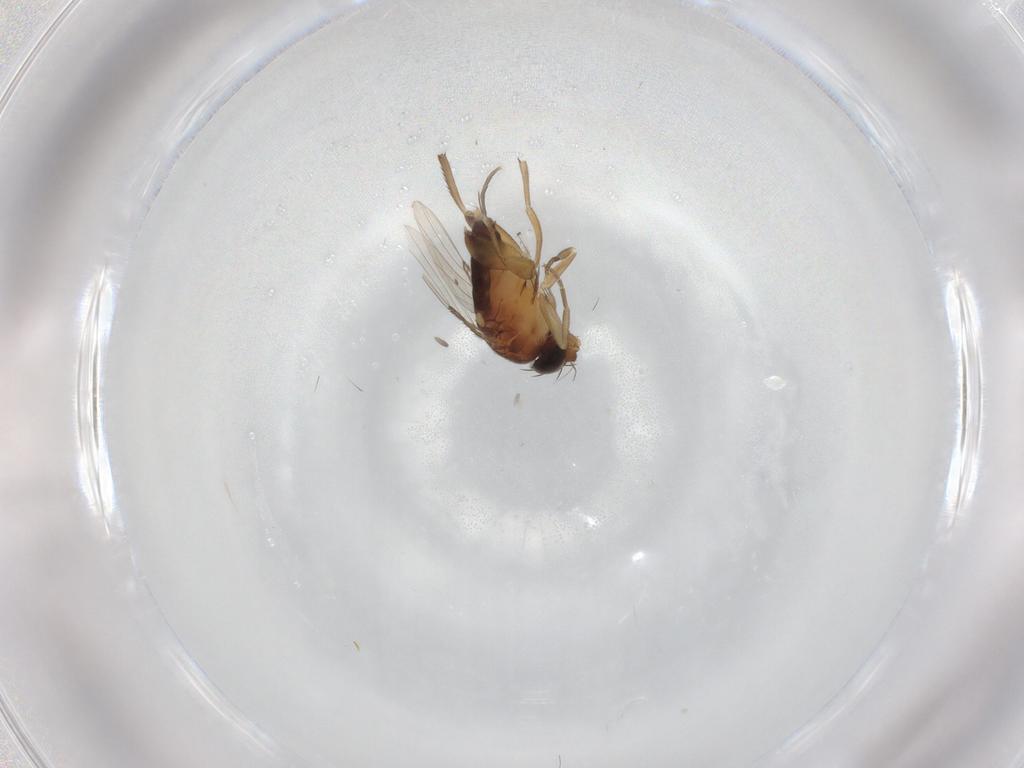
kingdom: Animalia
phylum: Arthropoda
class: Insecta
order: Diptera
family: Phoridae
